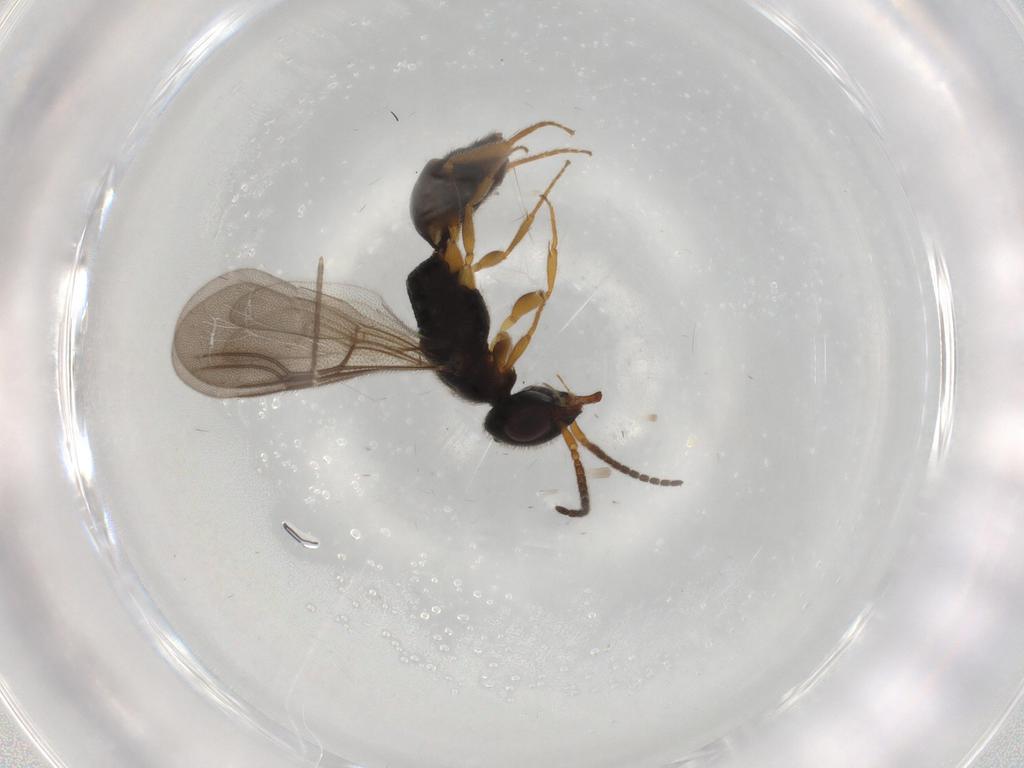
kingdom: Animalia
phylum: Arthropoda
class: Insecta
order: Hymenoptera
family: Bethylidae
